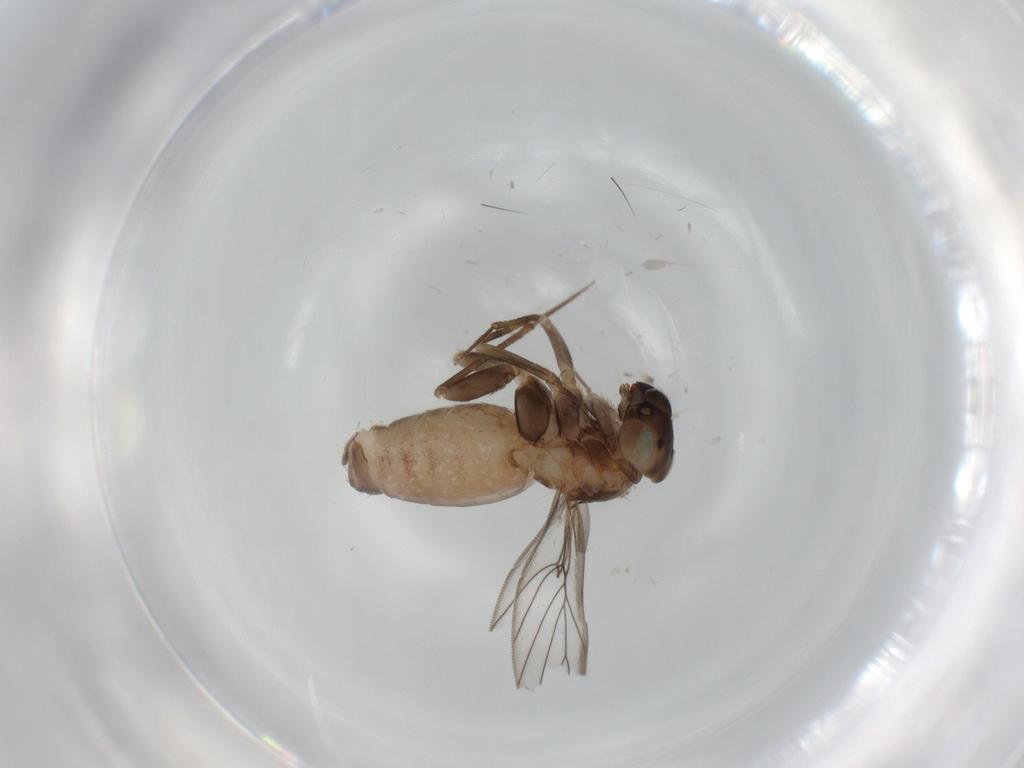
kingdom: Animalia
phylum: Arthropoda
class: Insecta
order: Psocodea
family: Lepidopsocidae
